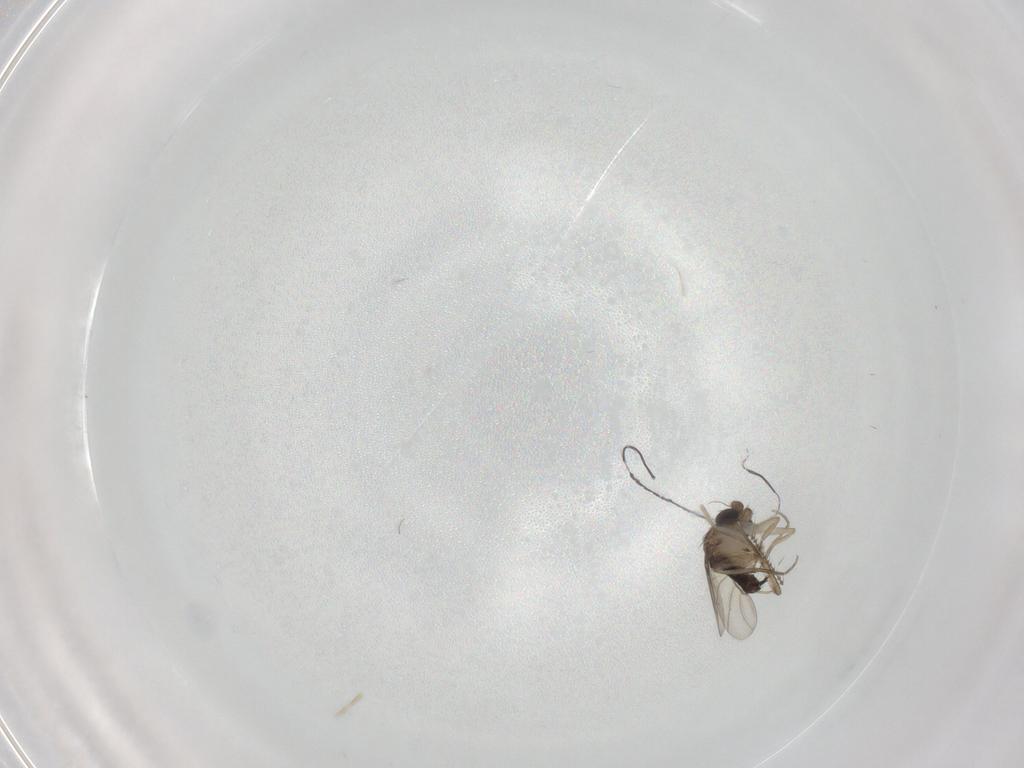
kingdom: Animalia
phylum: Arthropoda
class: Insecta
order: Diptera
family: Phoridae
